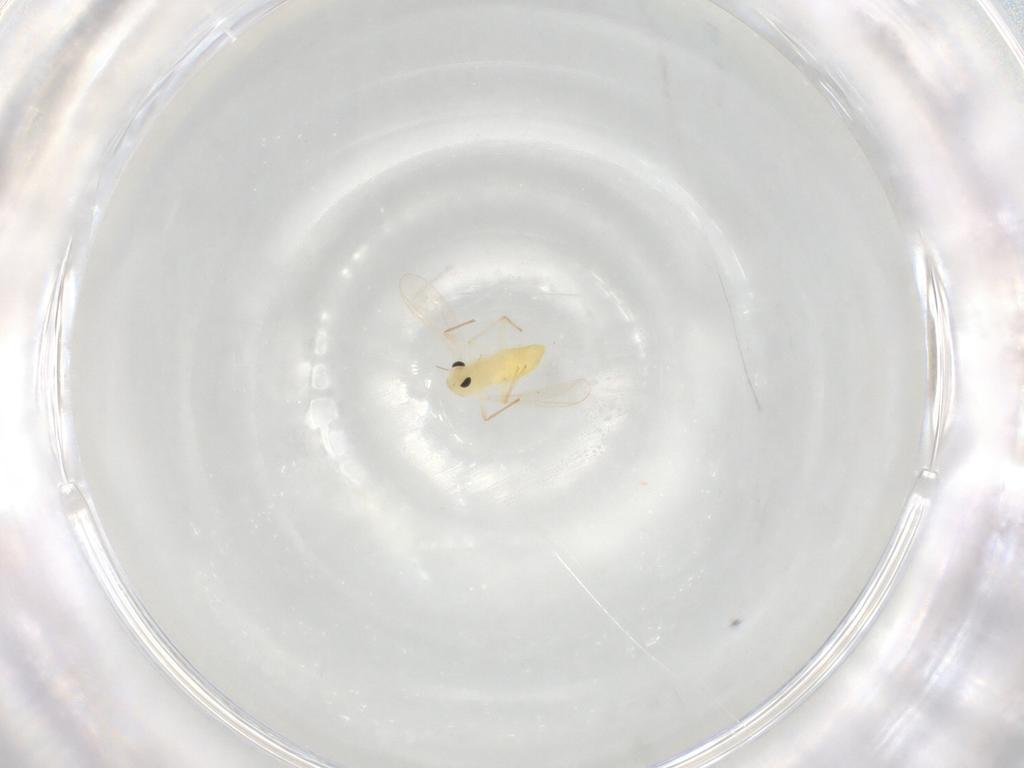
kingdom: Animalia
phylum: Arthropoda
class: Insecta
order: Diptera
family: Chironomidae
